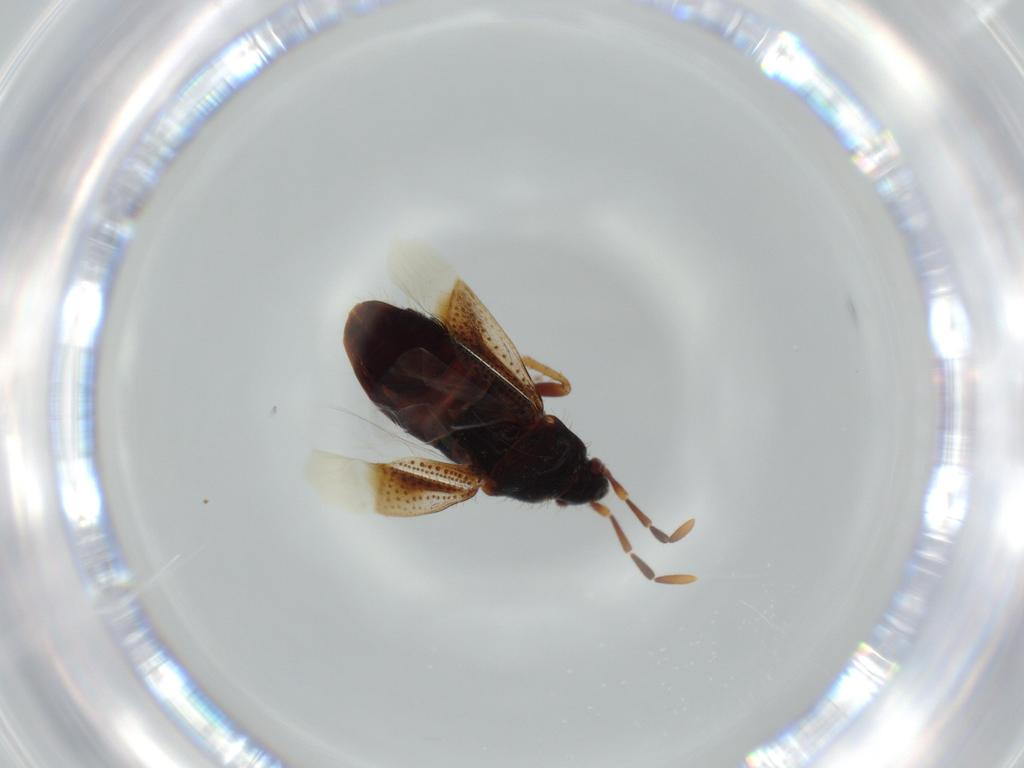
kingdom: Animalia
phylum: Arthropoda
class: Insecta
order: Hemiptera
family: Rhyparochromidae
